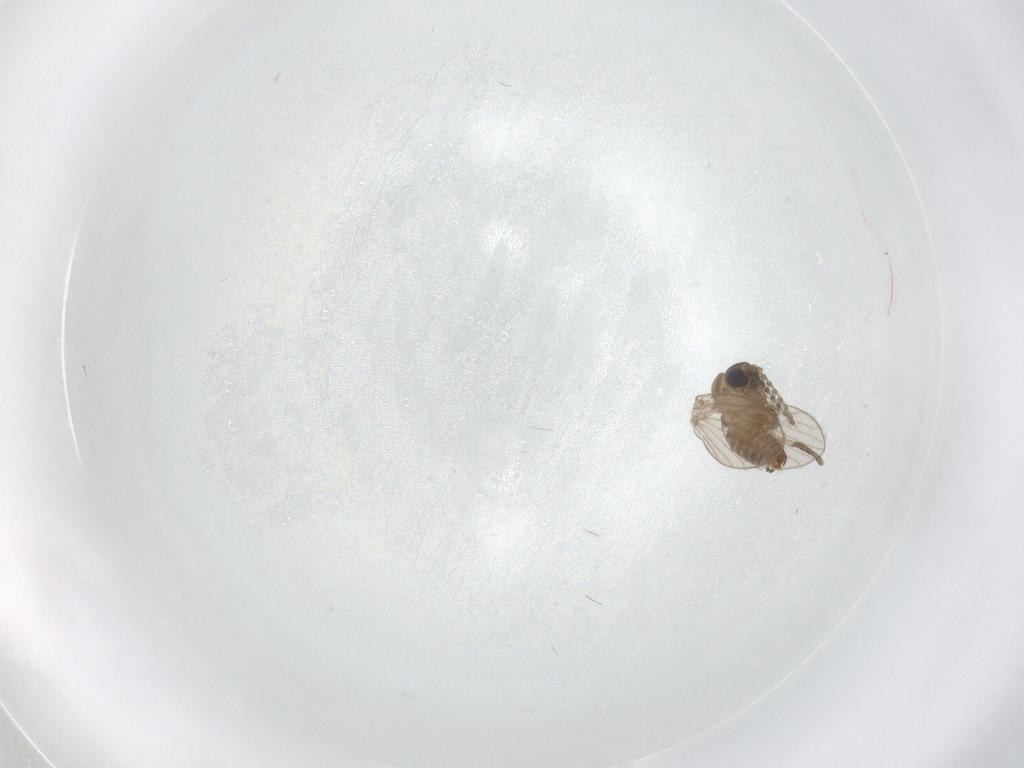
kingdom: Animalia
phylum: Arthropoda
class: Insecta
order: Diptera
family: Psychodidae
